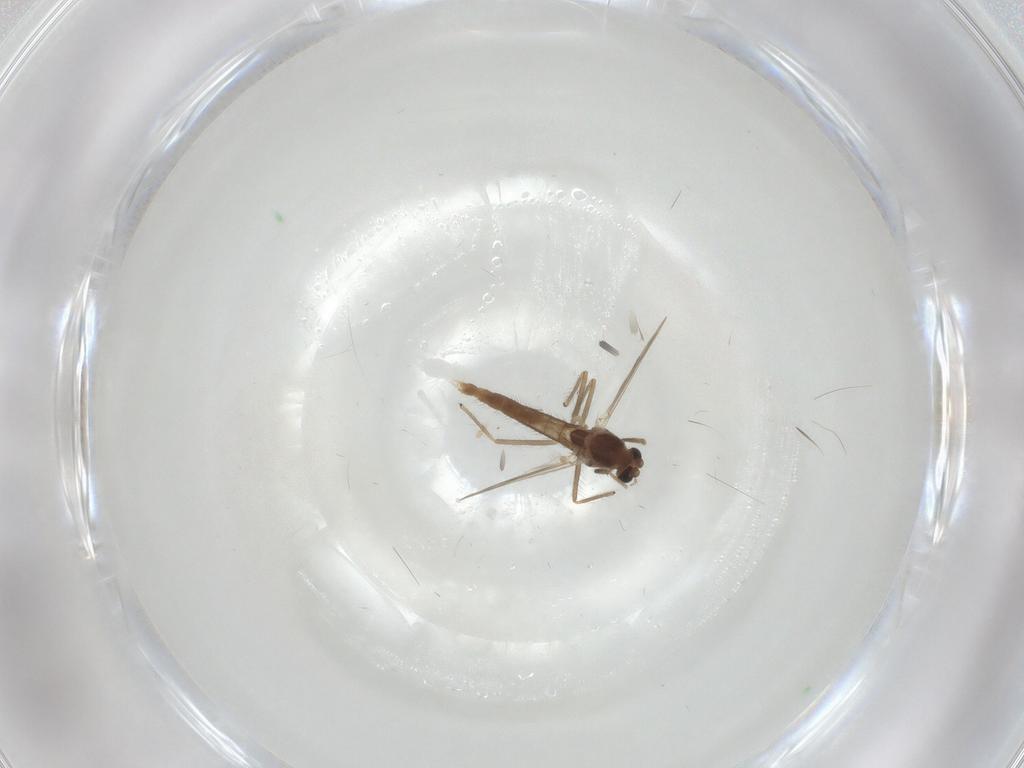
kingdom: Animalia
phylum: Arthropoda
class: Insecta
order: Diptera
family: Chironomidae
